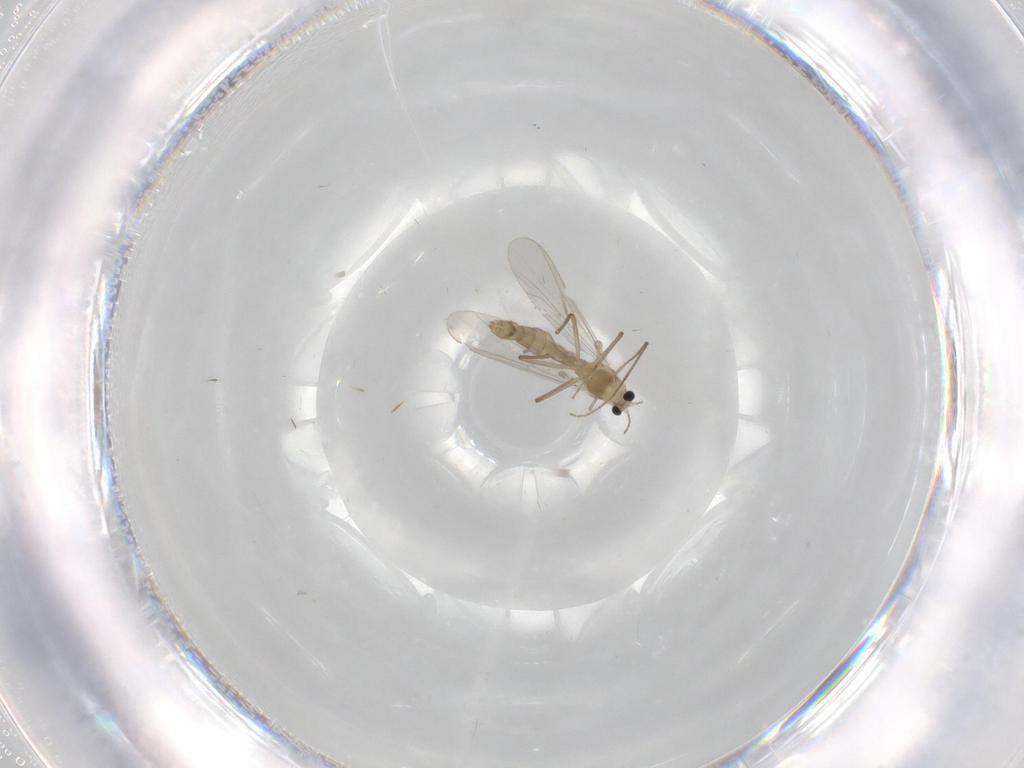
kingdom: Animalia
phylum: Arthropoda
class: Insecta
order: Diptera
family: Chironomidae
